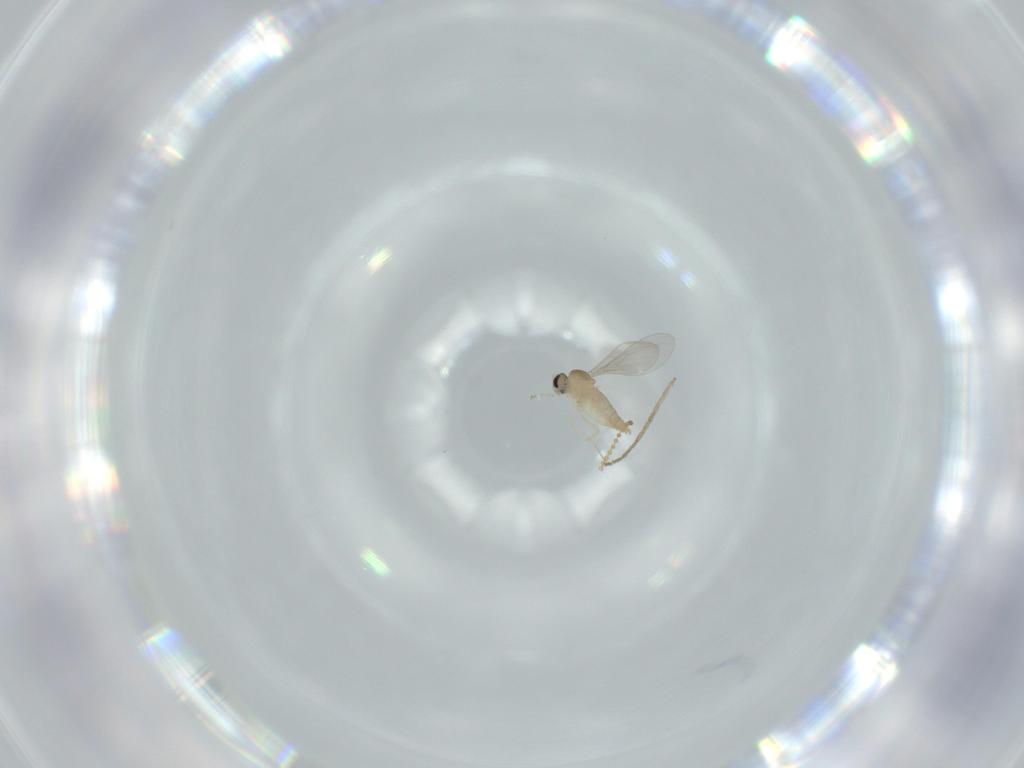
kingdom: Animalia
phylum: Arthropoda
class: Insecta
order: Diptera
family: Cecidomyiidae
